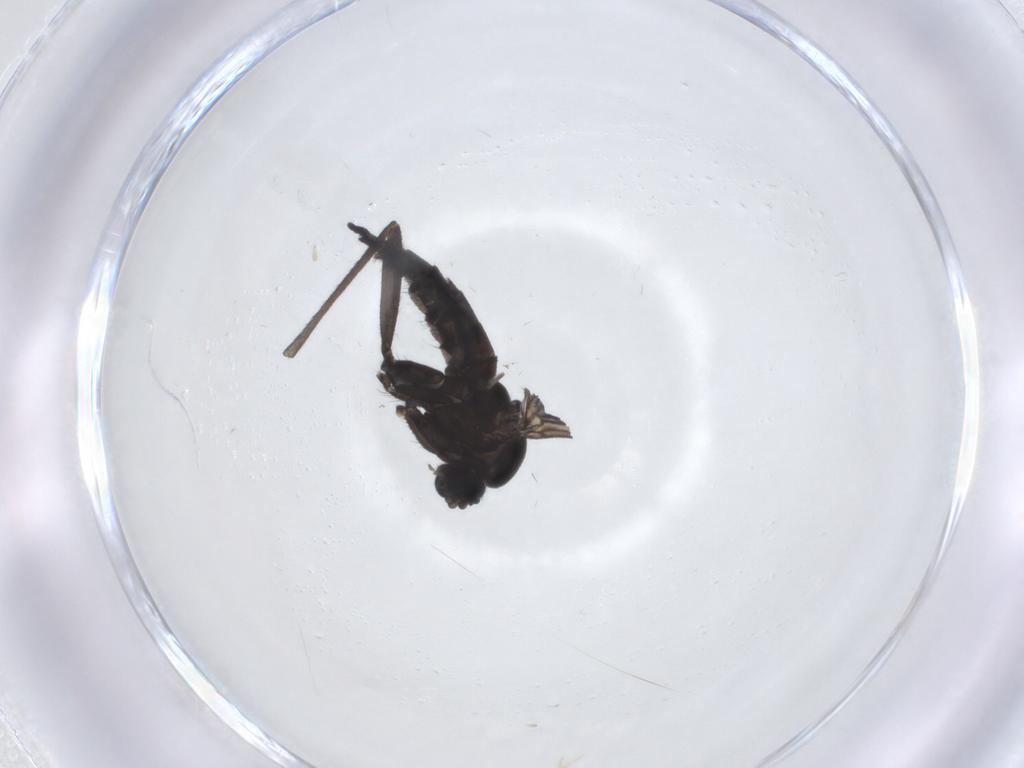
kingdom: Animalia
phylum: Arthropoda
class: Insecta
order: Diptera
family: Sciaridae
